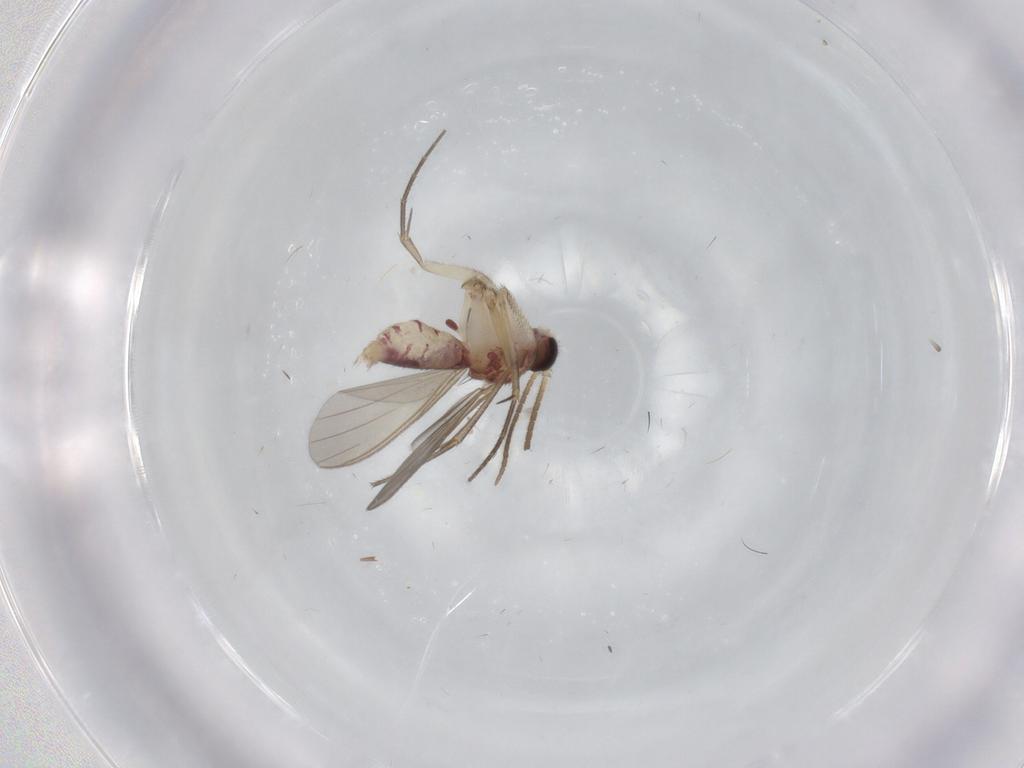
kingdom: Animalia
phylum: Arthropoda
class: Insecta
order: Diptera
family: Mycetophilidae
